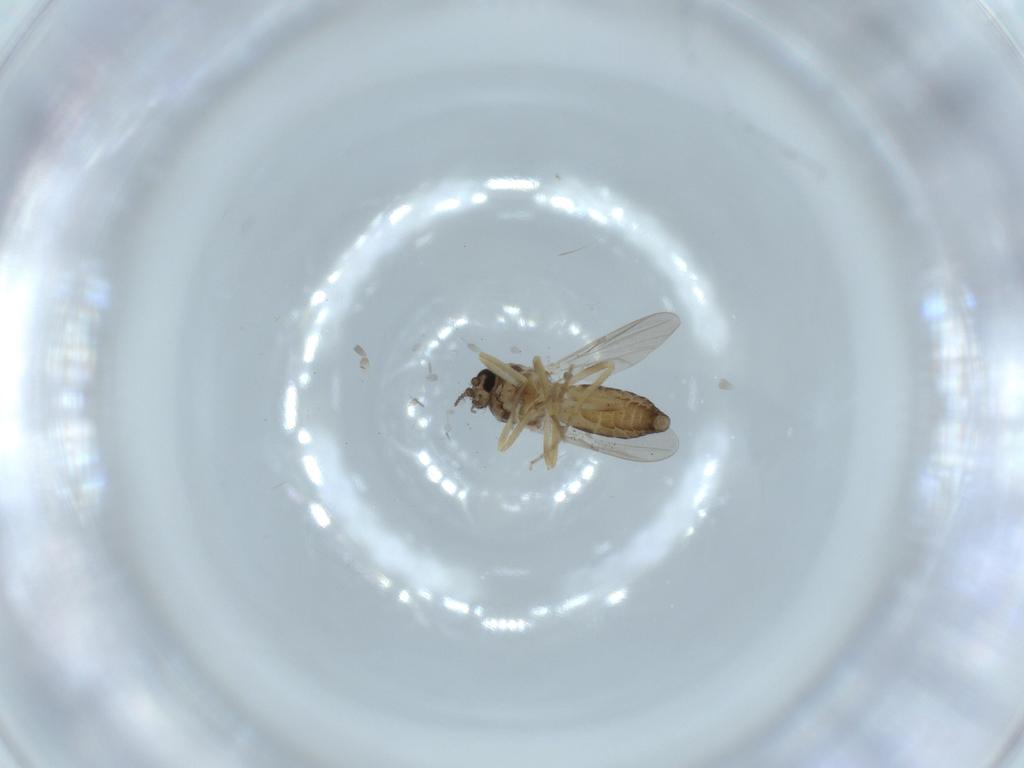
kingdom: Animalia
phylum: Arthropoda
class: Insecta
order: Diptera
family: Ceratopogonidae
